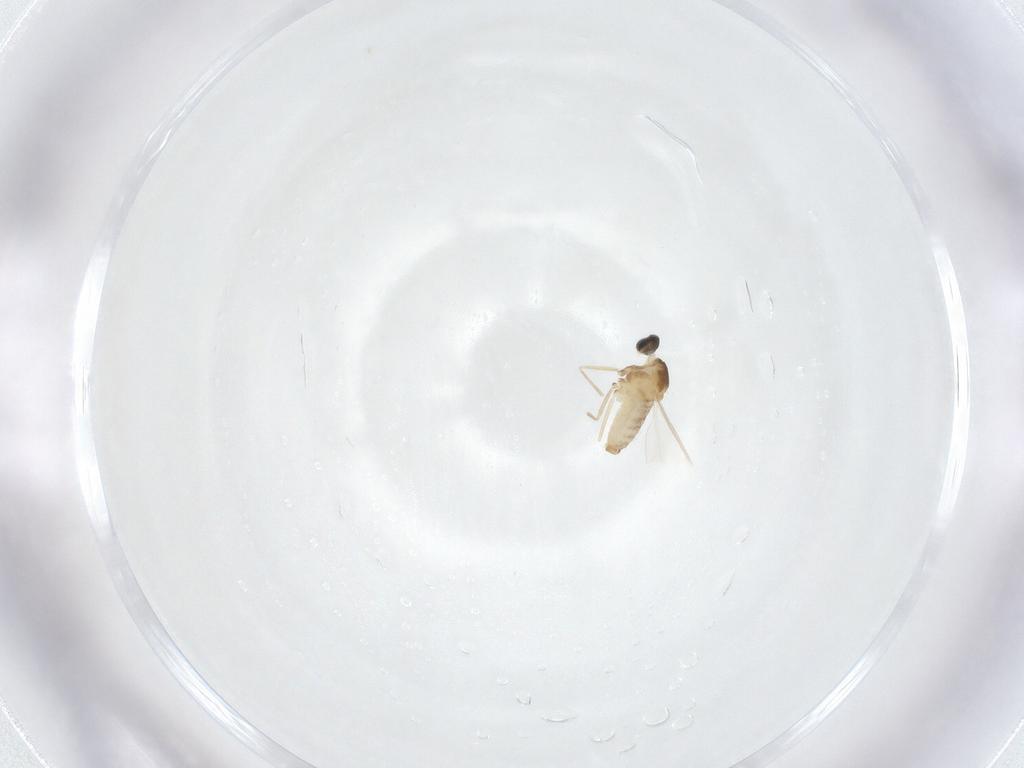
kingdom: Animalia
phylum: Arthropoda
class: Insecta
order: Diptera
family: Cecidomyiidae
